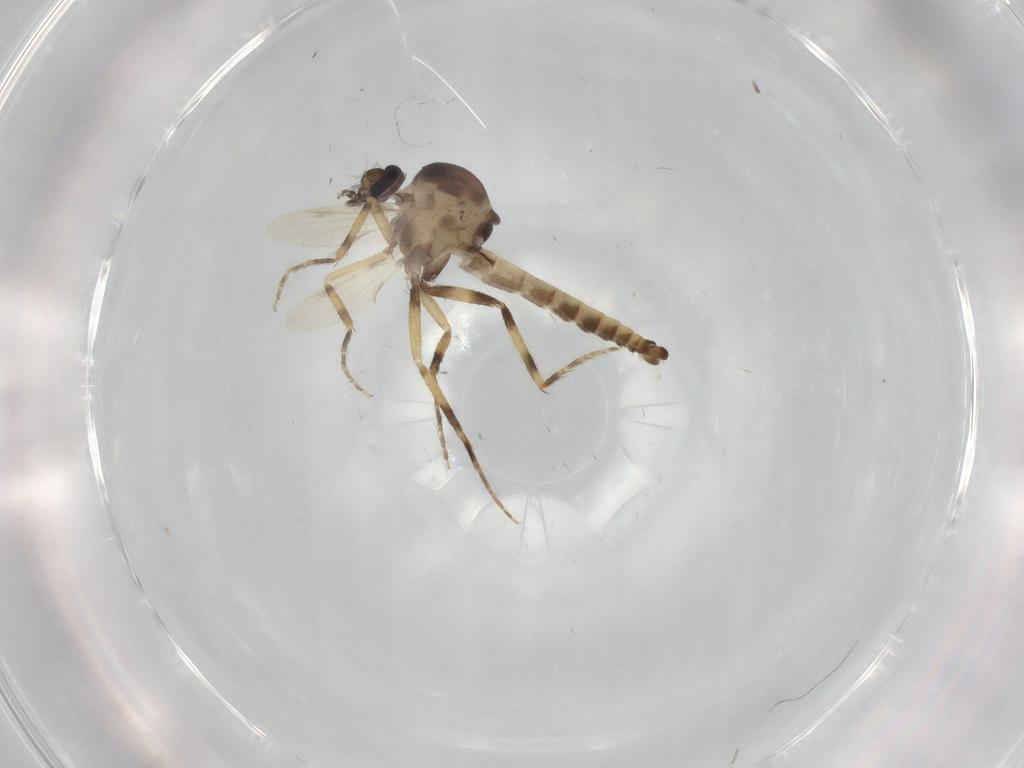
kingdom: Animalia
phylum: Arthropoda
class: Insecta
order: Diptera
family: Ceratopogonidae
